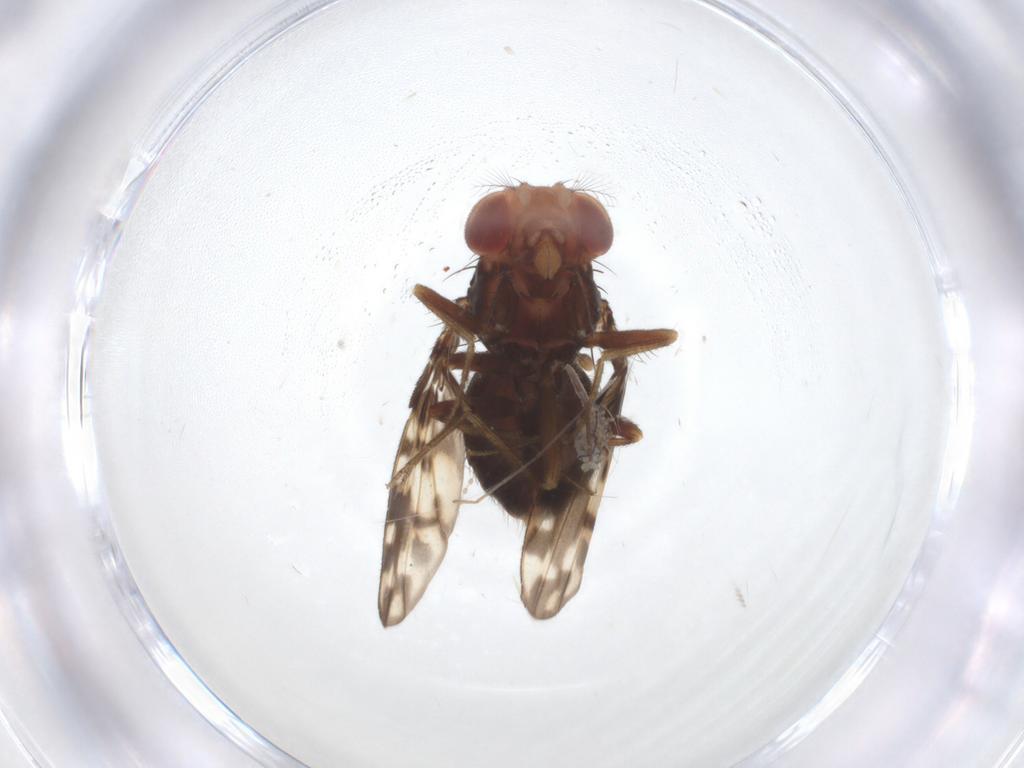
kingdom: Animalia
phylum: Arthropoda
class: Insecta
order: Diptera
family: Drosophilidae
